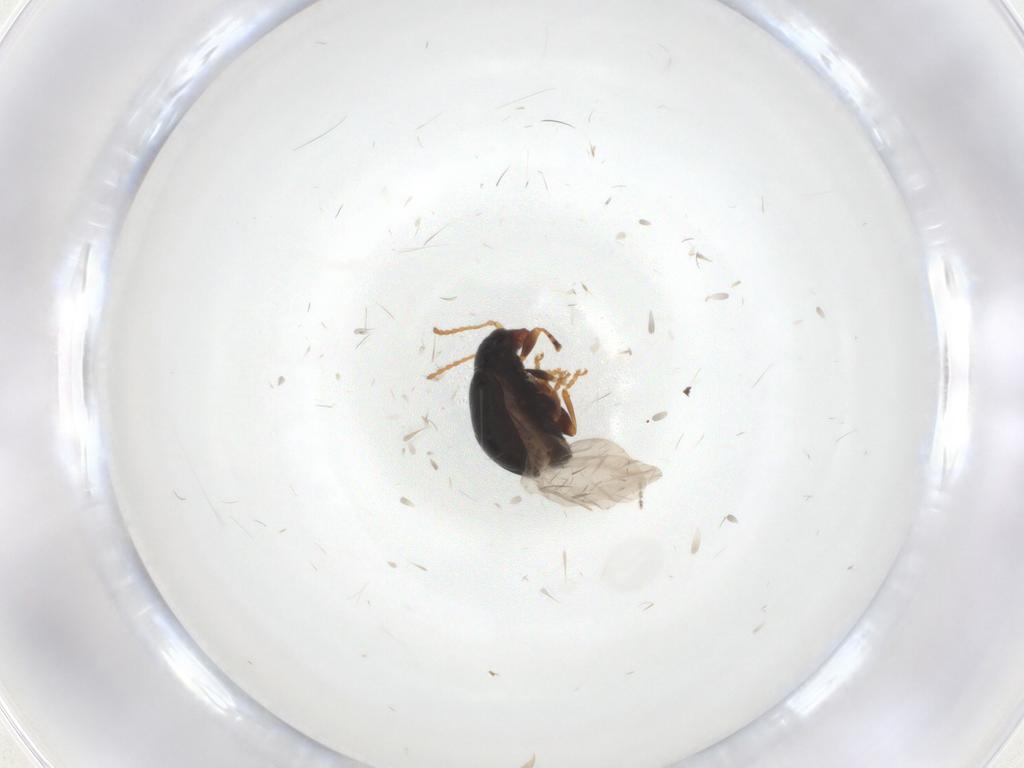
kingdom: Animalia
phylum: Arthropoda
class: Insecta
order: Coleoptera
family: Chrysomelidae
